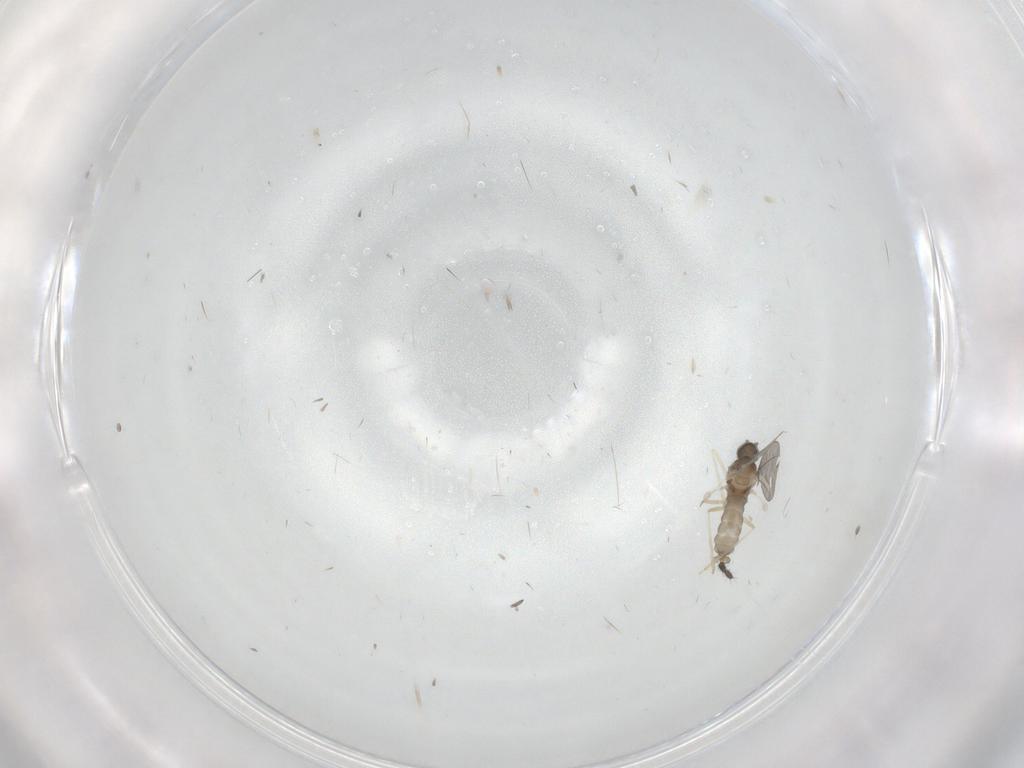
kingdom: Animalia
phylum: Arthropoda
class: Insecta
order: Diptera
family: Limoniidae
